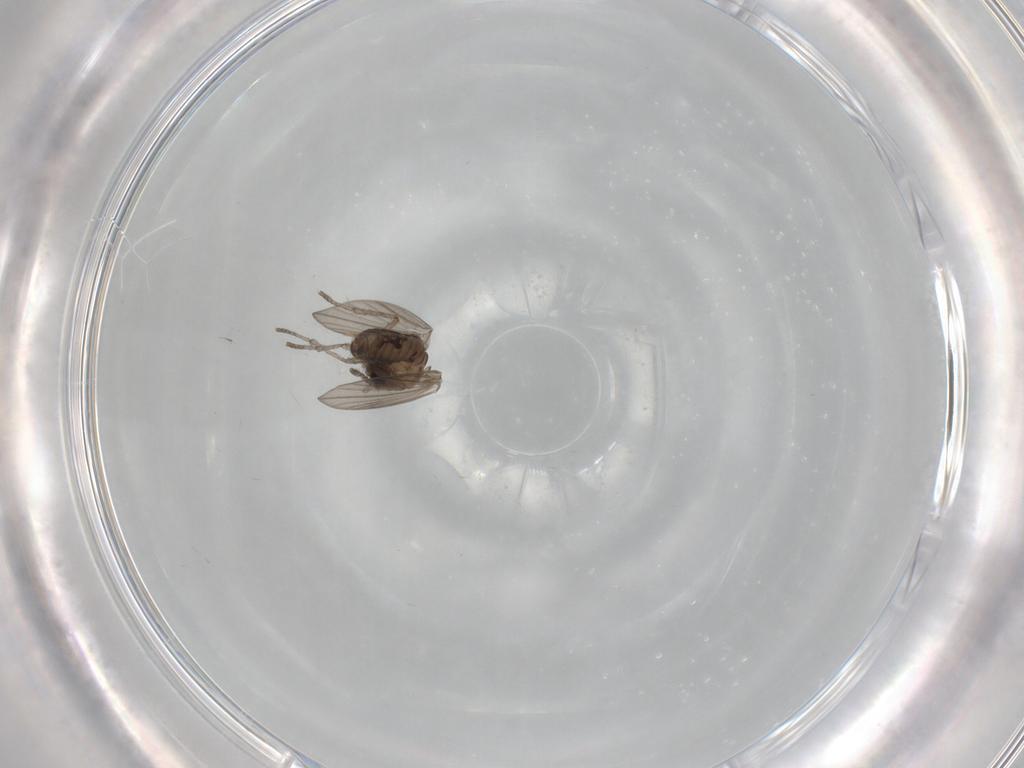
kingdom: Animalia
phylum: Arthropoda
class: Insecta
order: Diptera
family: Psychodidae
